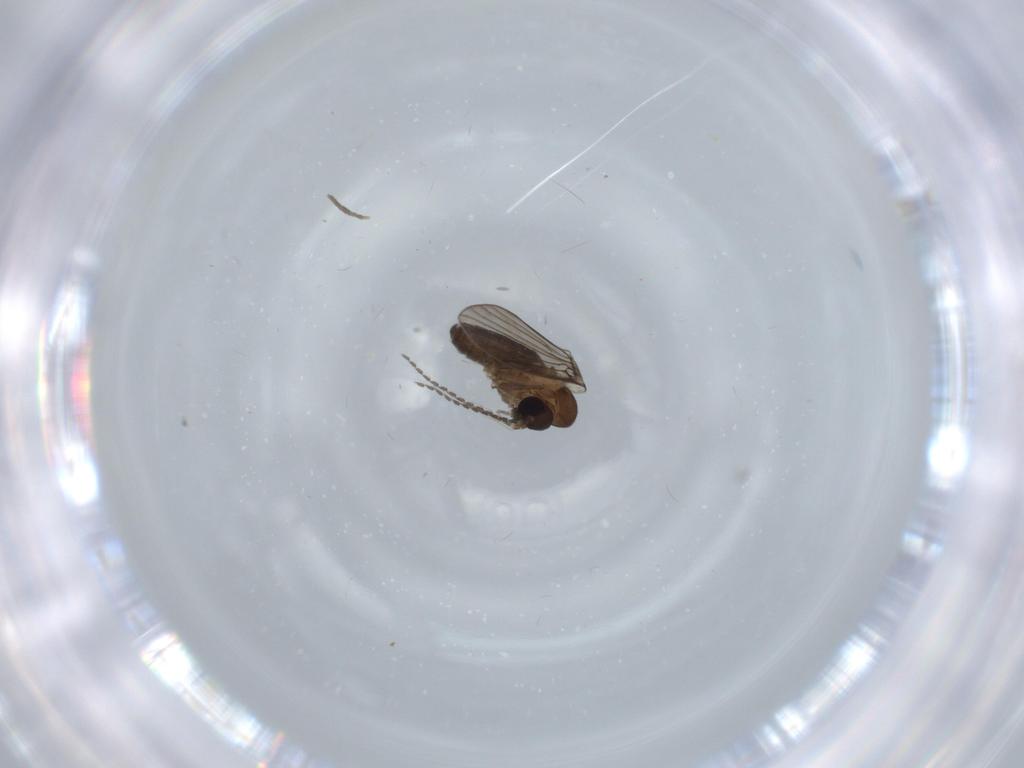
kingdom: Animalia
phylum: Arthropoda
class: Insecta
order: Diptera
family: Psychodidae
